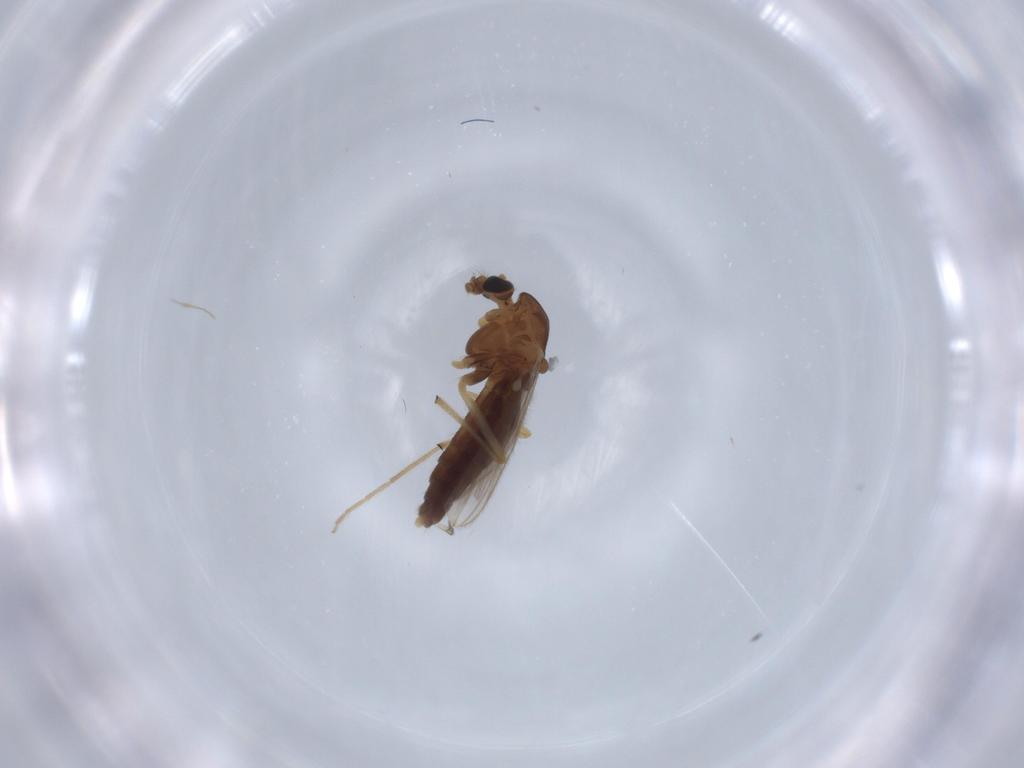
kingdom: Animalia
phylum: Arthropoda
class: Insecta
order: Diptera
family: Chironomidae
